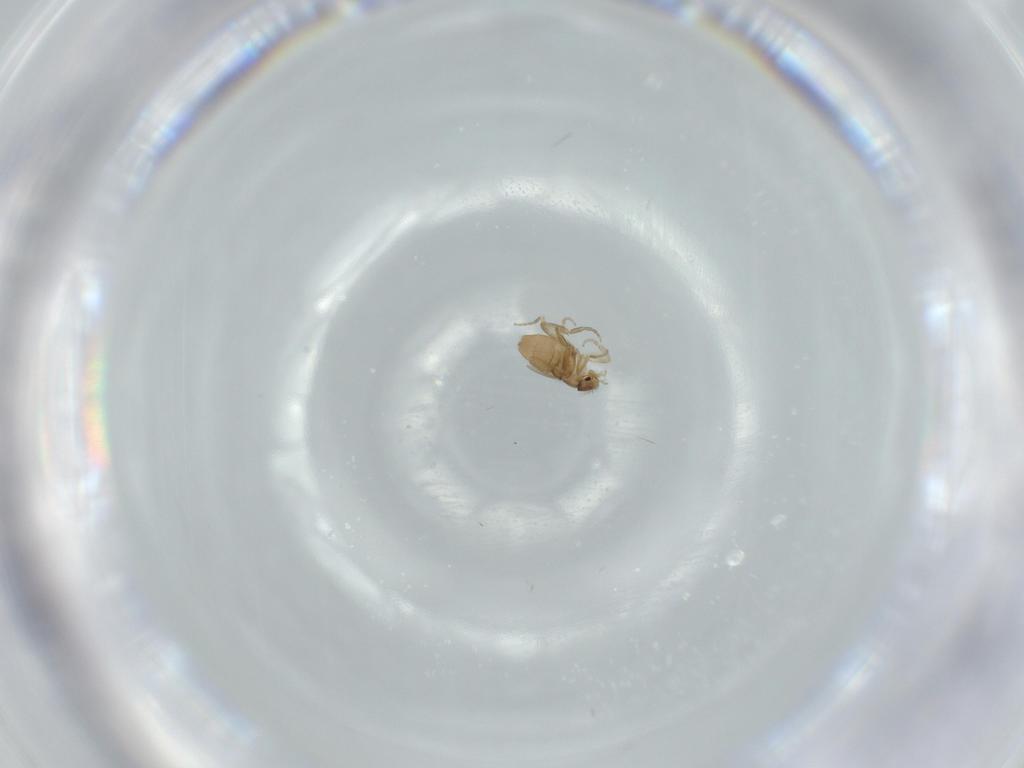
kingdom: Animalia
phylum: Arthropoda
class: Insecta
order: Diptera
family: Phoridae
